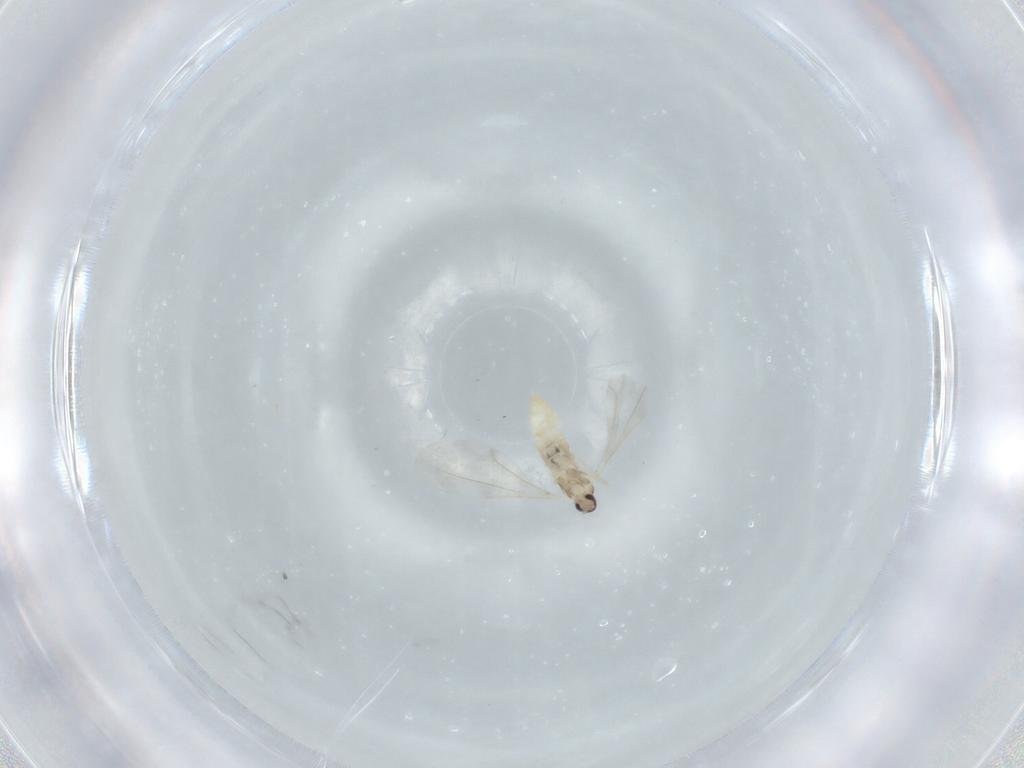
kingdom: Animalia
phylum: Arthropoda
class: Insecta
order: Diptera
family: Cecidomyiidae
